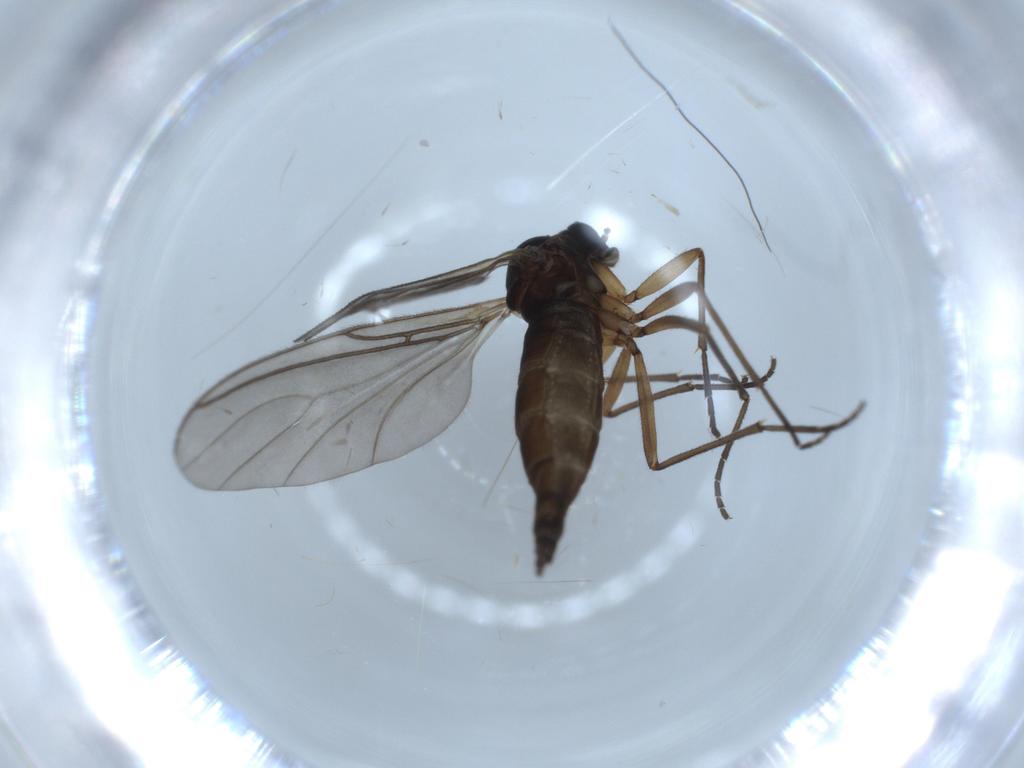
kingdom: Animalia
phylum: Arthropoda
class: Insecta
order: Diptera
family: Sciaridae
